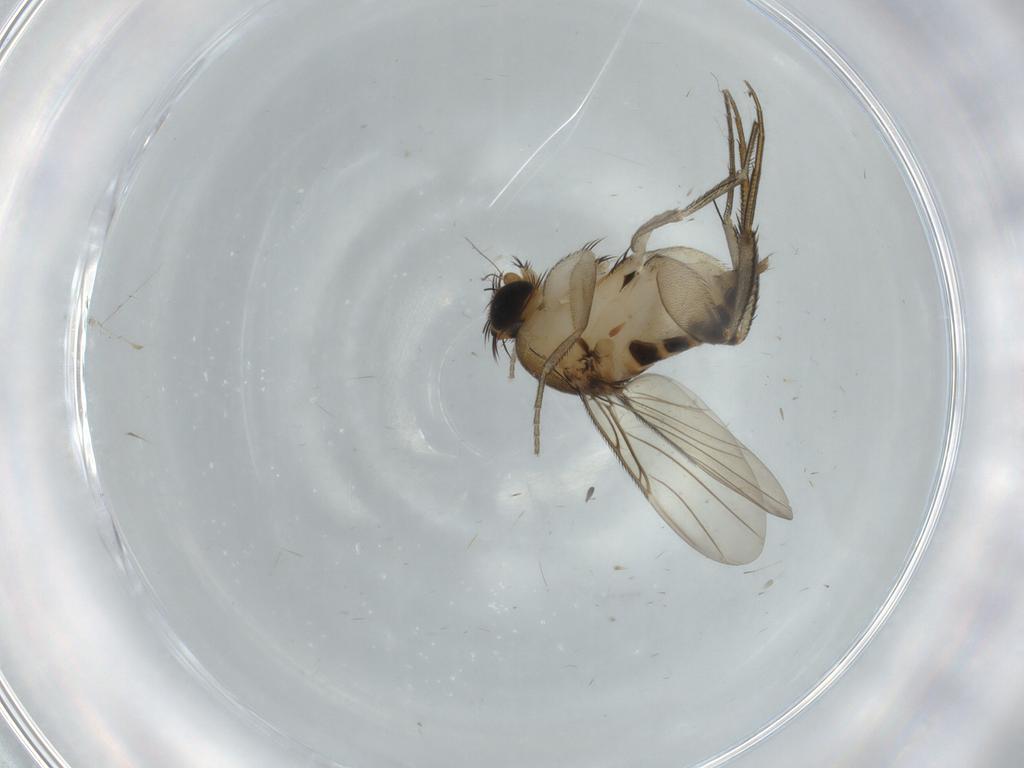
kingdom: Animalia
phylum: Arthropoda
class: Insecta
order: Diptera
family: Phoridae
